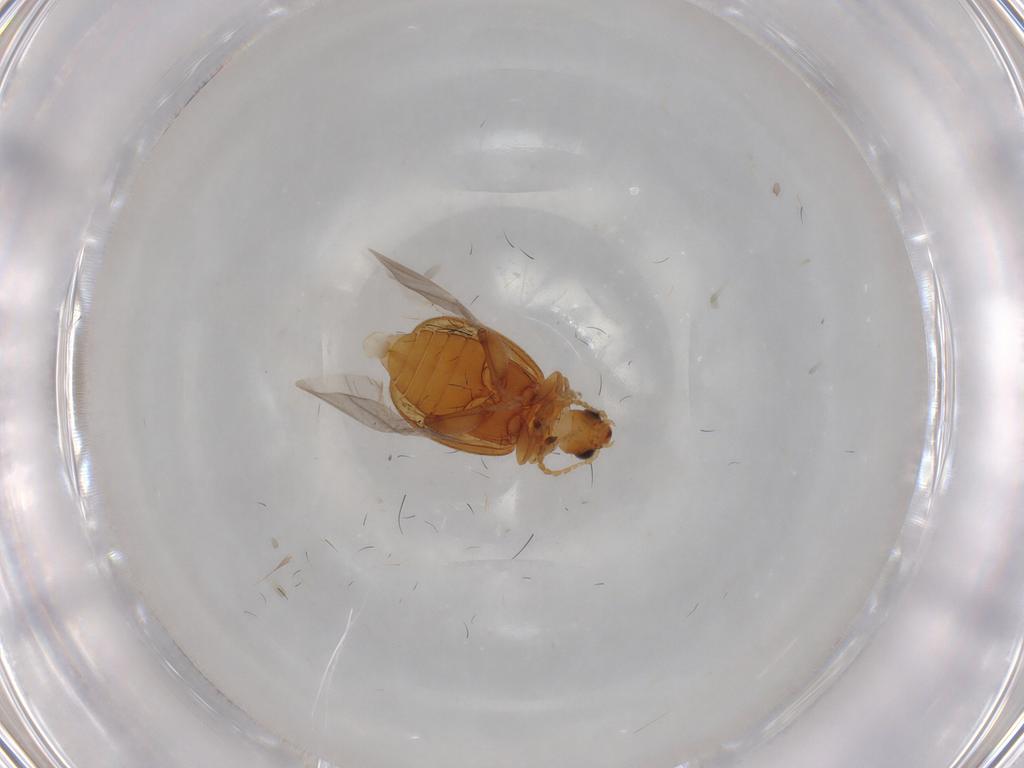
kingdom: Animalia
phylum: Arthropoda
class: Insecta
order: Coleoptera
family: Chrysomelidae
